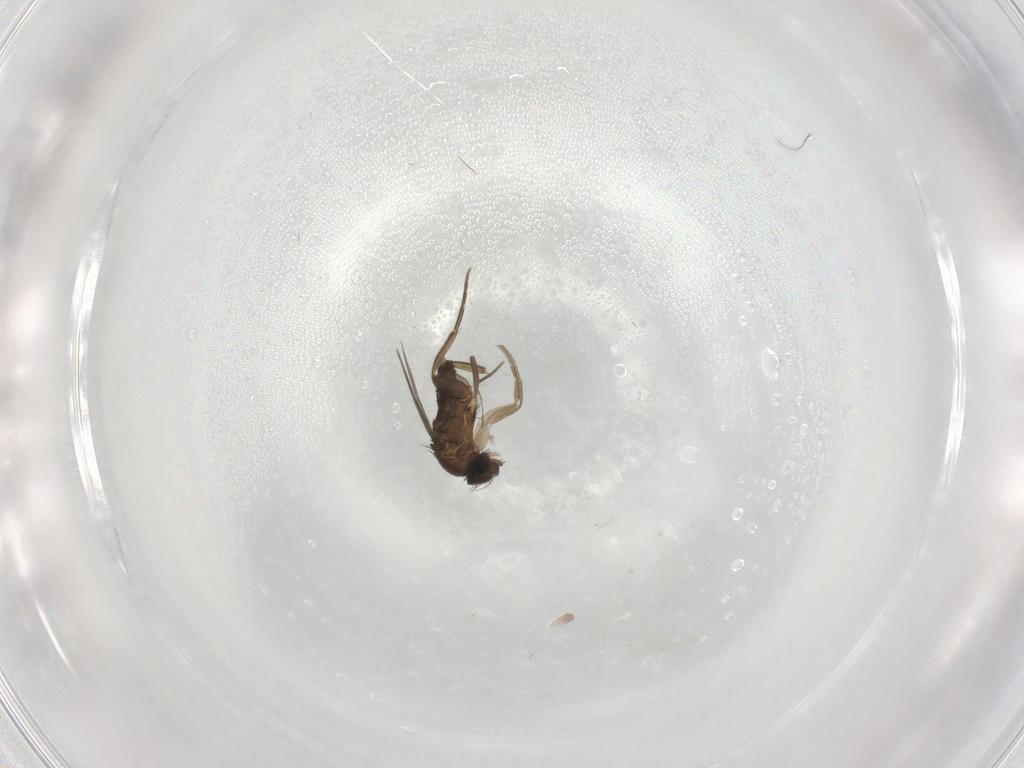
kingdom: Animalia
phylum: Arthropoda
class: Insecta
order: Diptera
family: Phoridae
